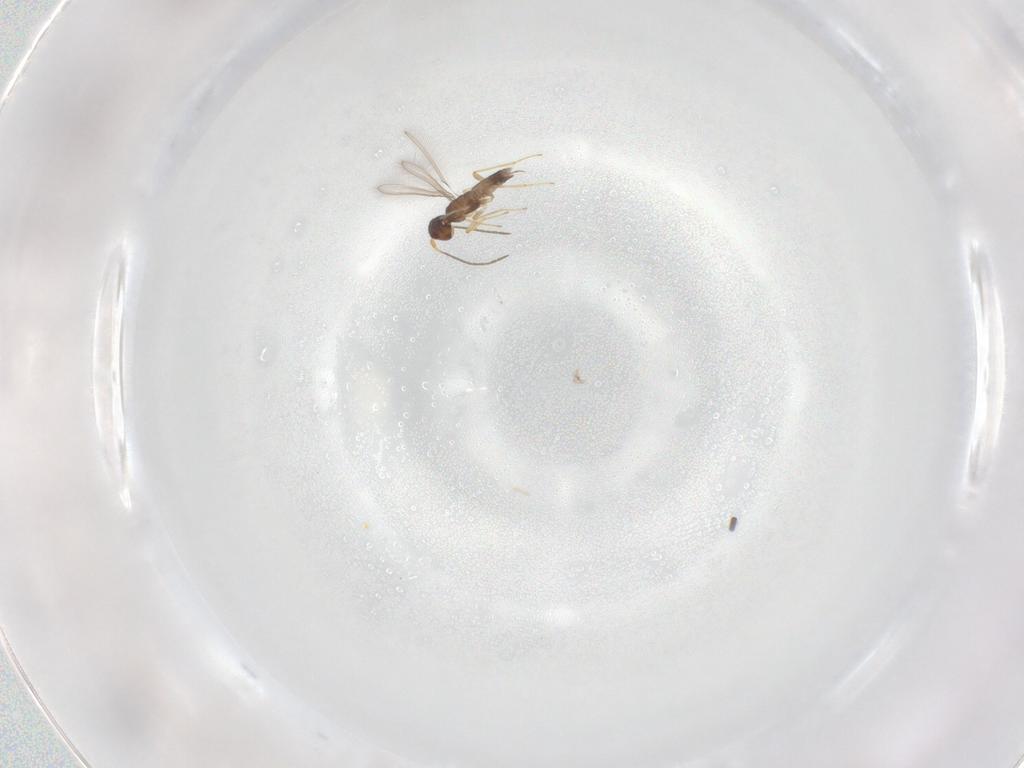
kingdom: Animalia
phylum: Arthropoda
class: Insecta
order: Hymenoptera
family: Mymaridae
